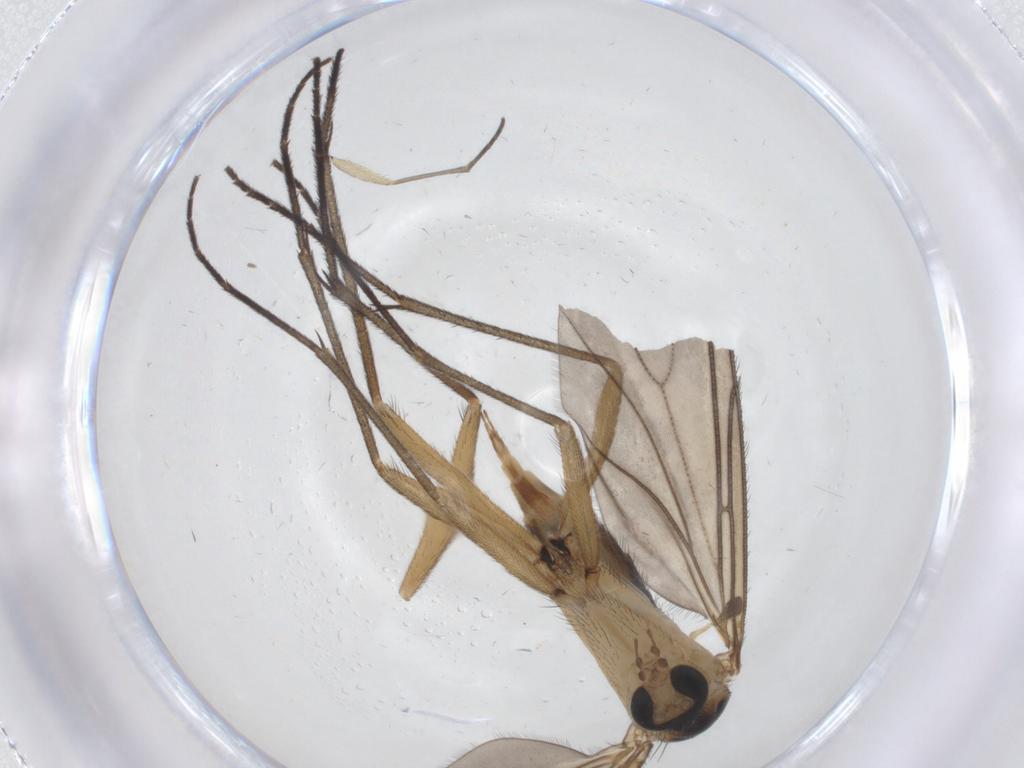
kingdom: Animalia
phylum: Arthropoda
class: Insecta
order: Diptera
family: Sciaridae
